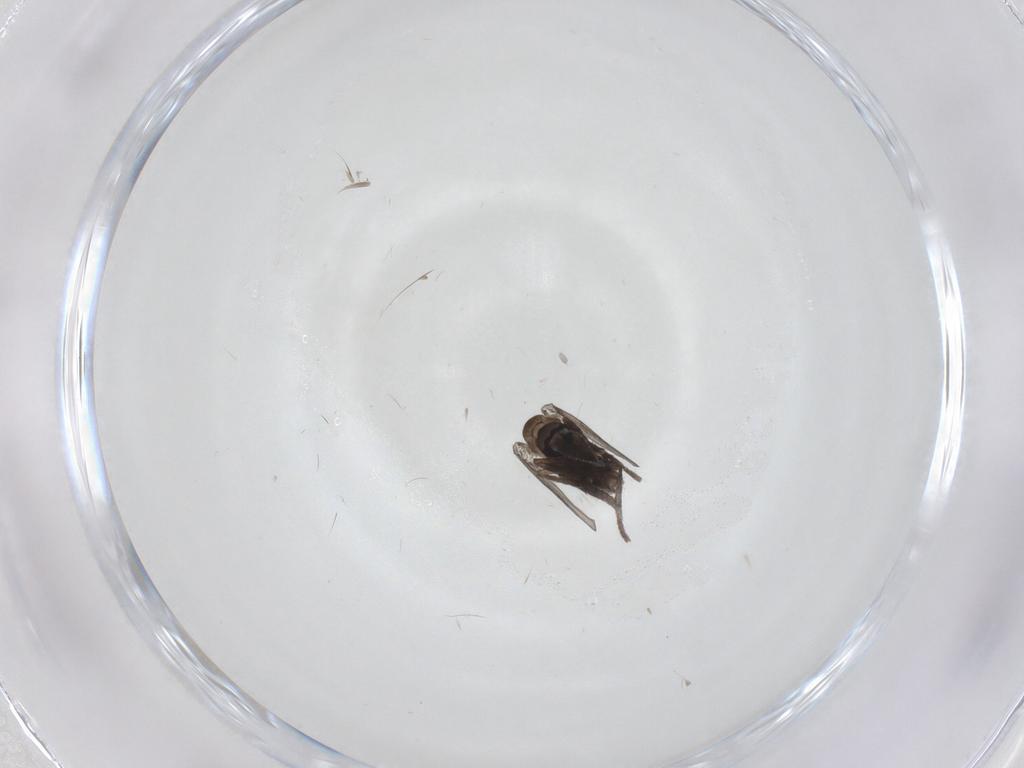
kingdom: Animalia
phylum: Arthropoda
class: Insecta
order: Diptera
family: Psychodidae
